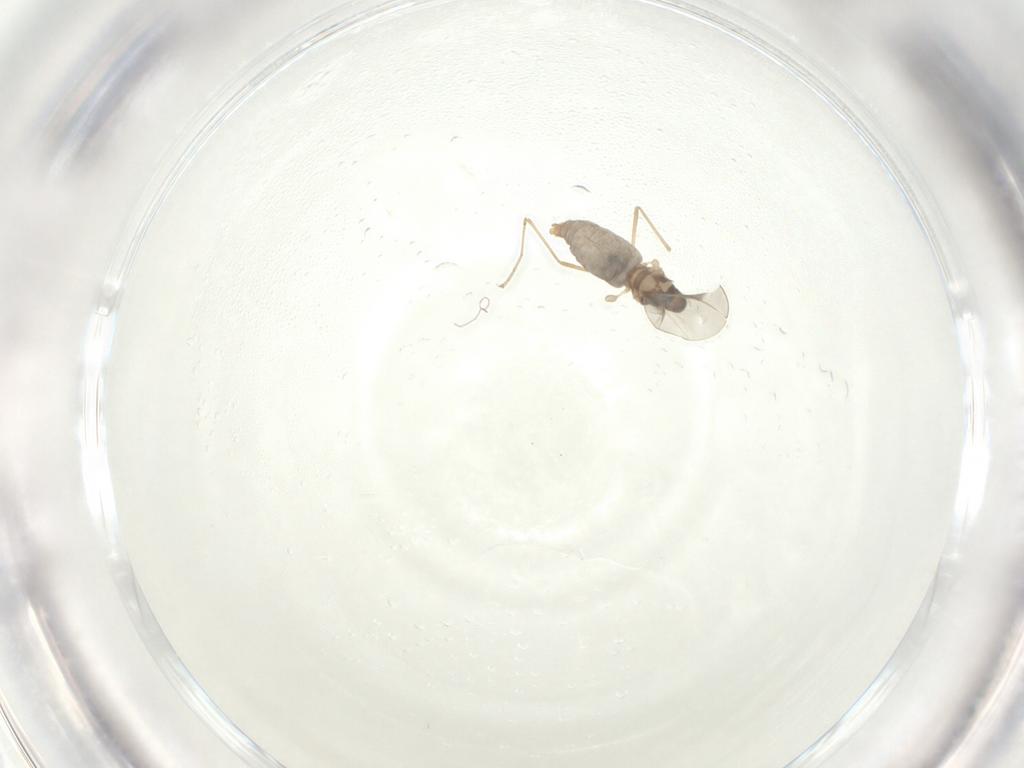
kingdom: Animalia
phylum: Arthropoda
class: Insecta
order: Diptera
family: Cecidomyiidae
